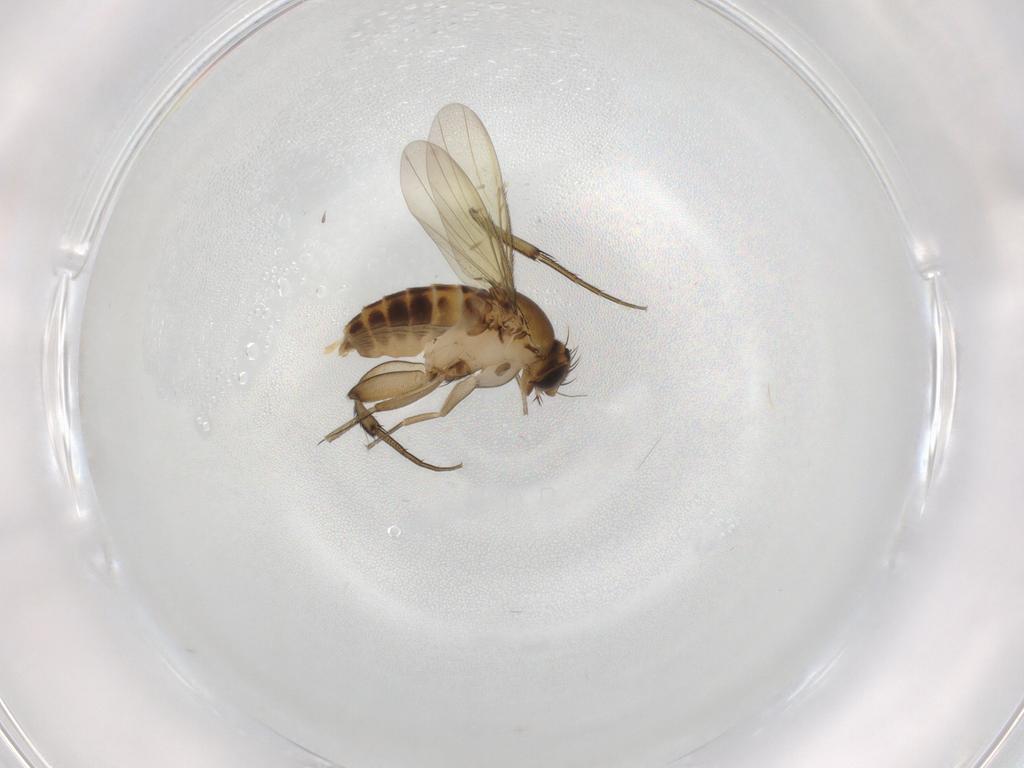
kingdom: Animalia
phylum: Arthropoda
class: Insecta
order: Diptera
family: Phoridae
